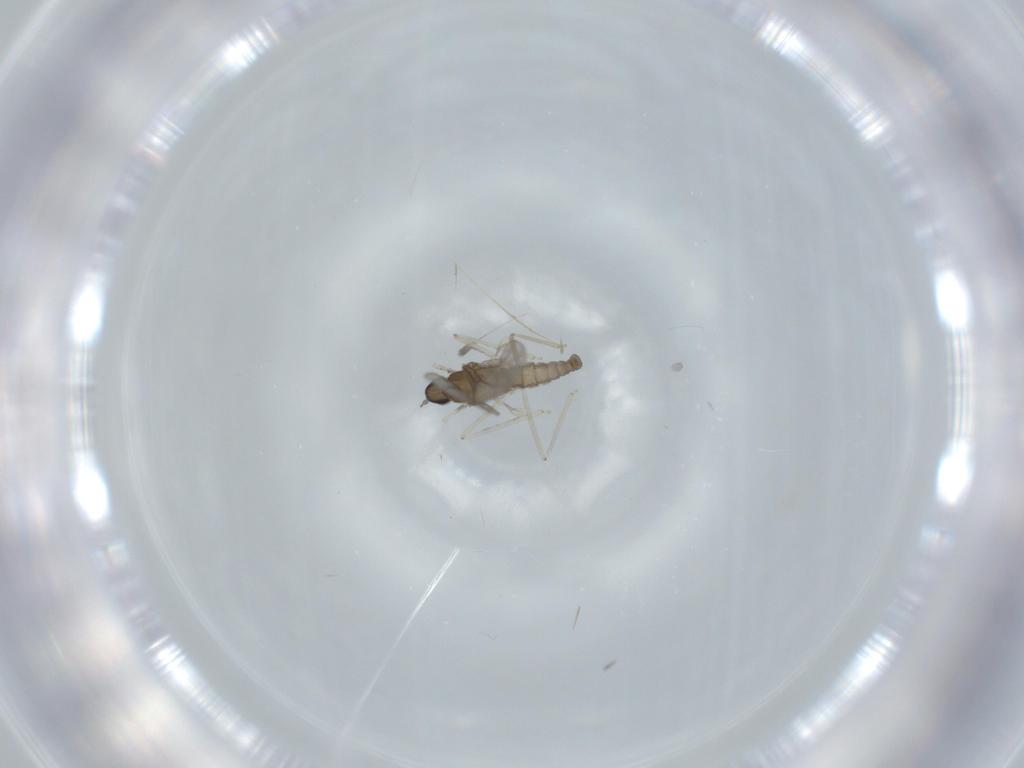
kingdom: Animalia
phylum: Arthropoda
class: Insecta
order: Diptera
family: Cecidomyiidae
